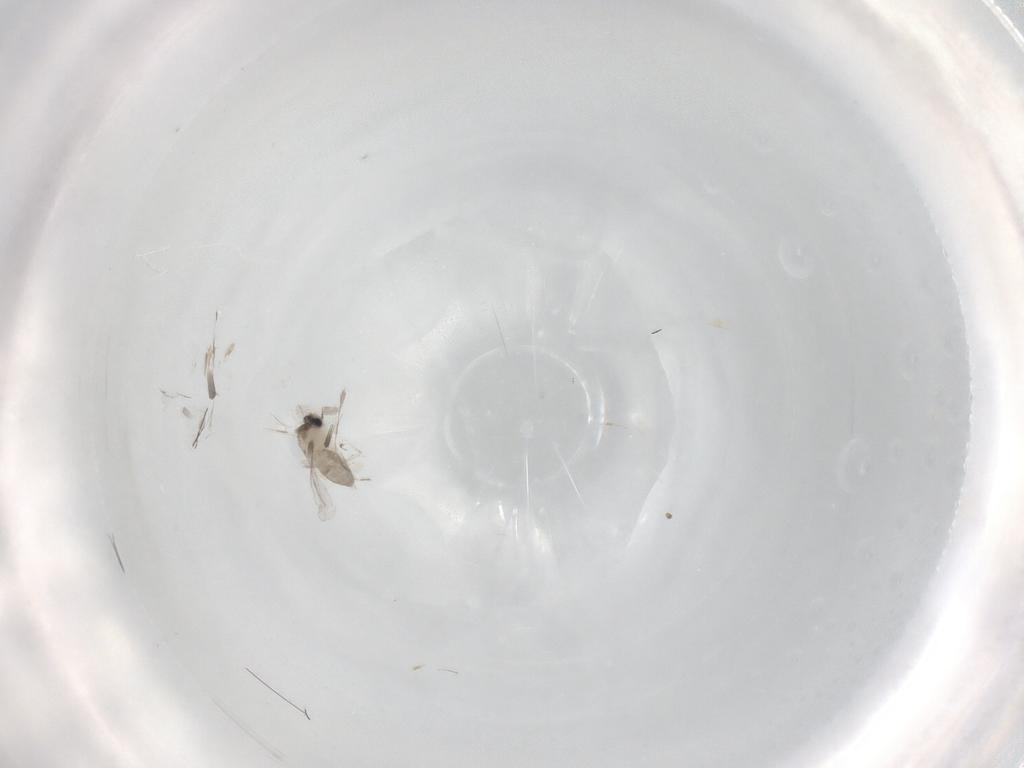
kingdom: Animalia
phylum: Arthropoda
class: Insecta
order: Diptera
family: Cecidomyiidae
